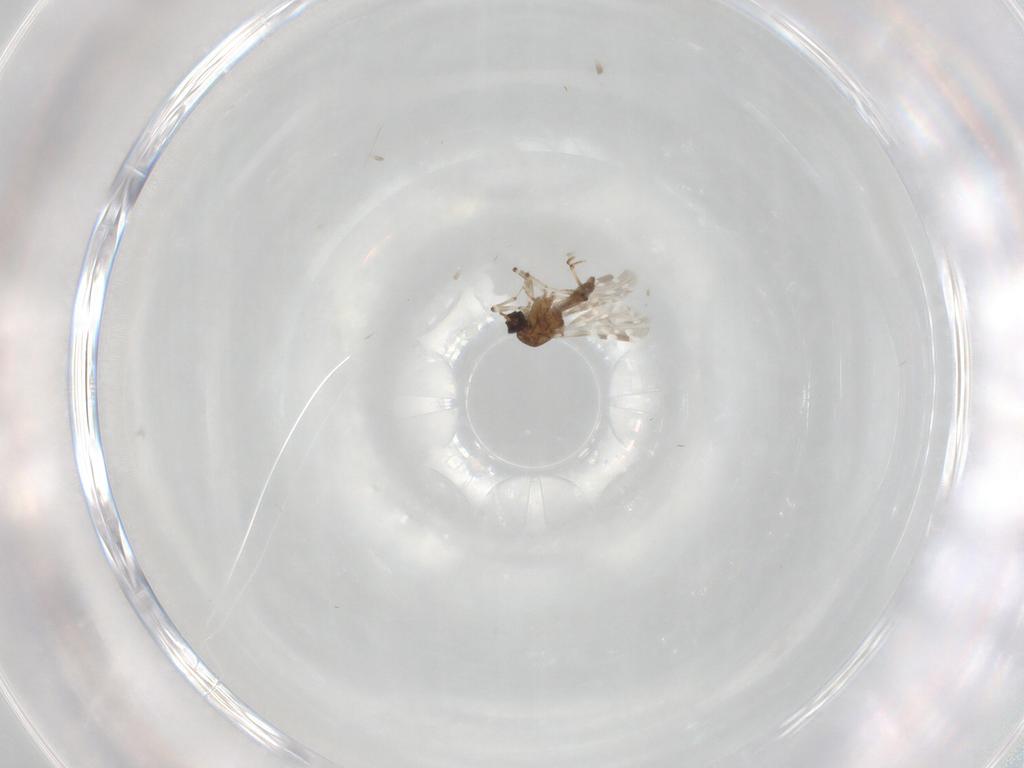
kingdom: Animalia
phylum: Arthropoda
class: Insecta
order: Diptera
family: Ceratopogonidae
